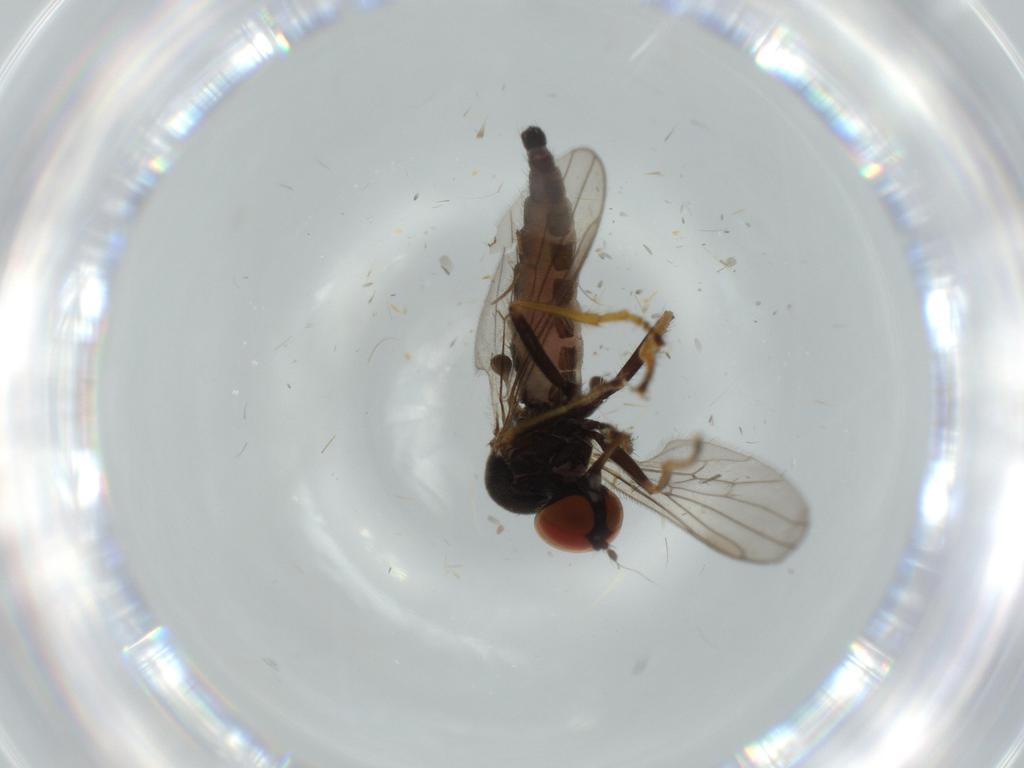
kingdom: Animalia
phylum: Arthropoda
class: Insecta
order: Diptera
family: Cecidomyiidae
